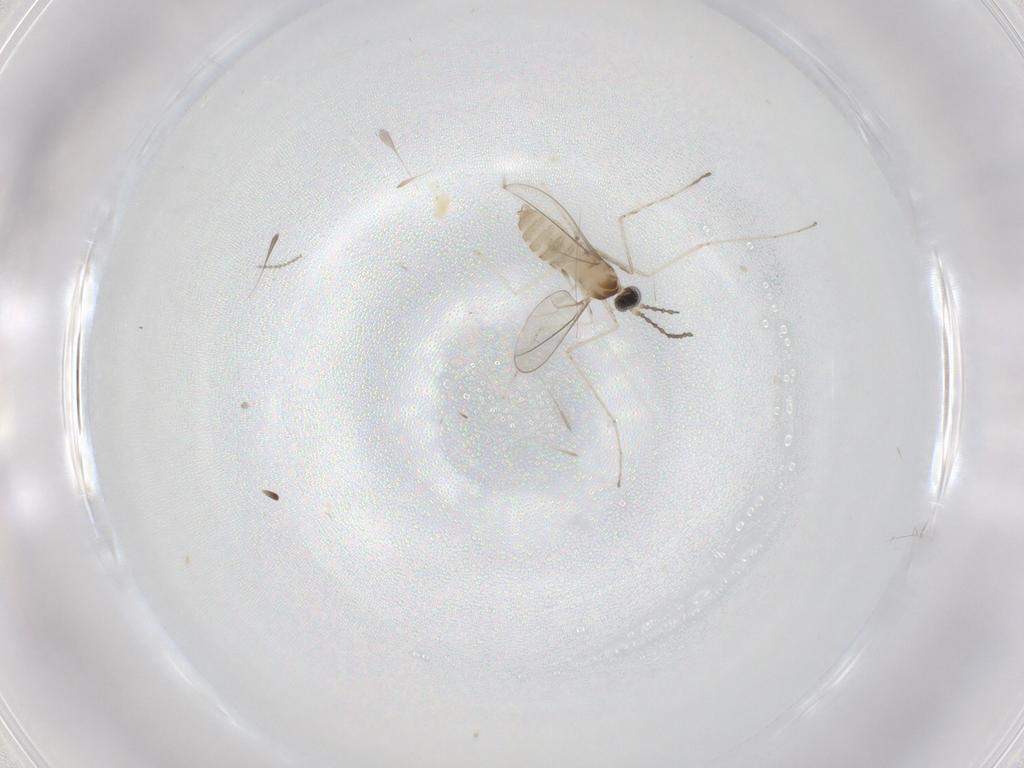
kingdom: Animalia
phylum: Arthropoda
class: Insecta
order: Diptera
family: Cecidomyiidae
